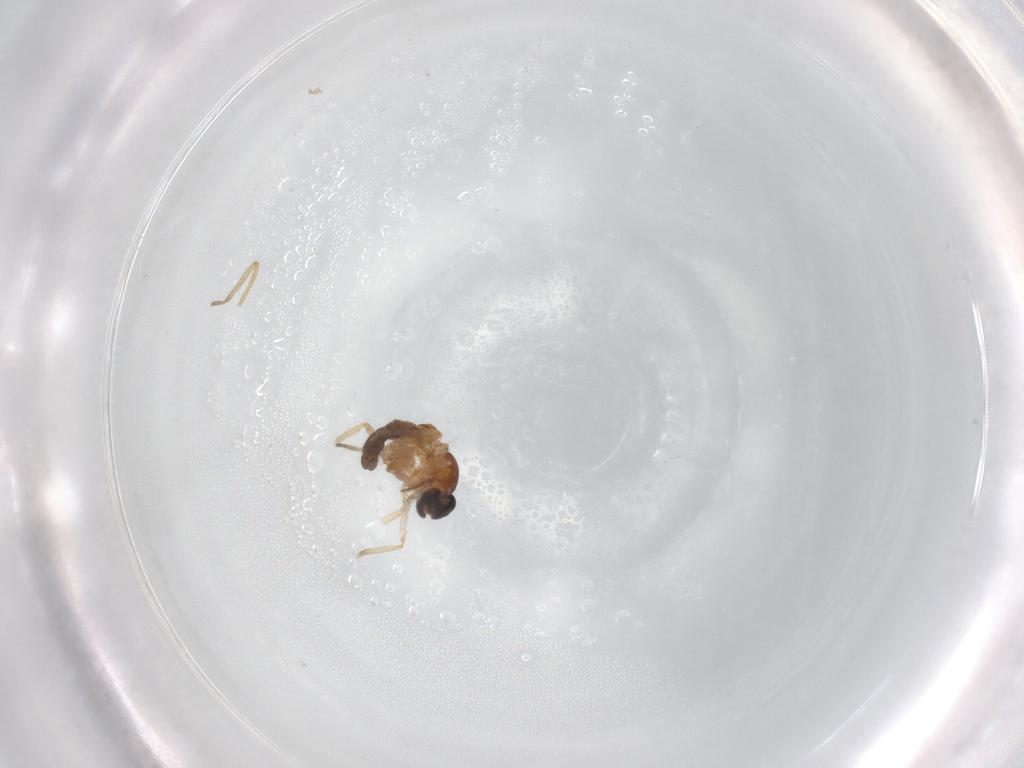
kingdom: Animalia
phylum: Arthropoda
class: Insecta
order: Diptera
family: Ceratopogonidae
